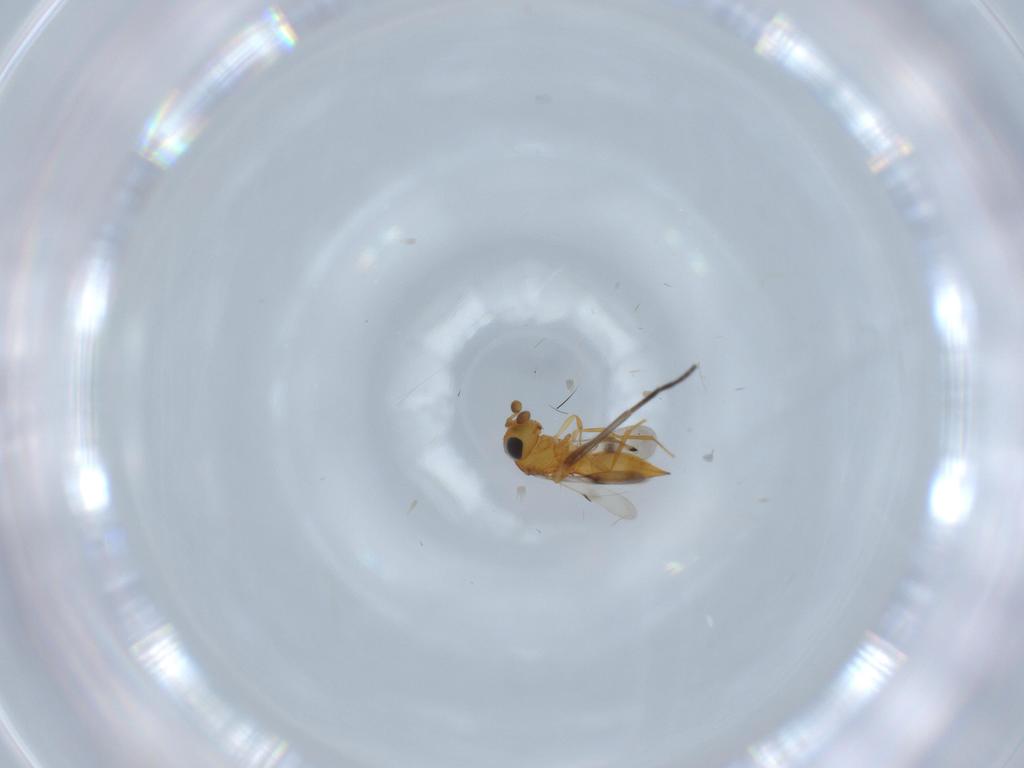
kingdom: Animalia
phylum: Arthropoda
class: Insecta
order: Hymenoptera
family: Scelionidae
